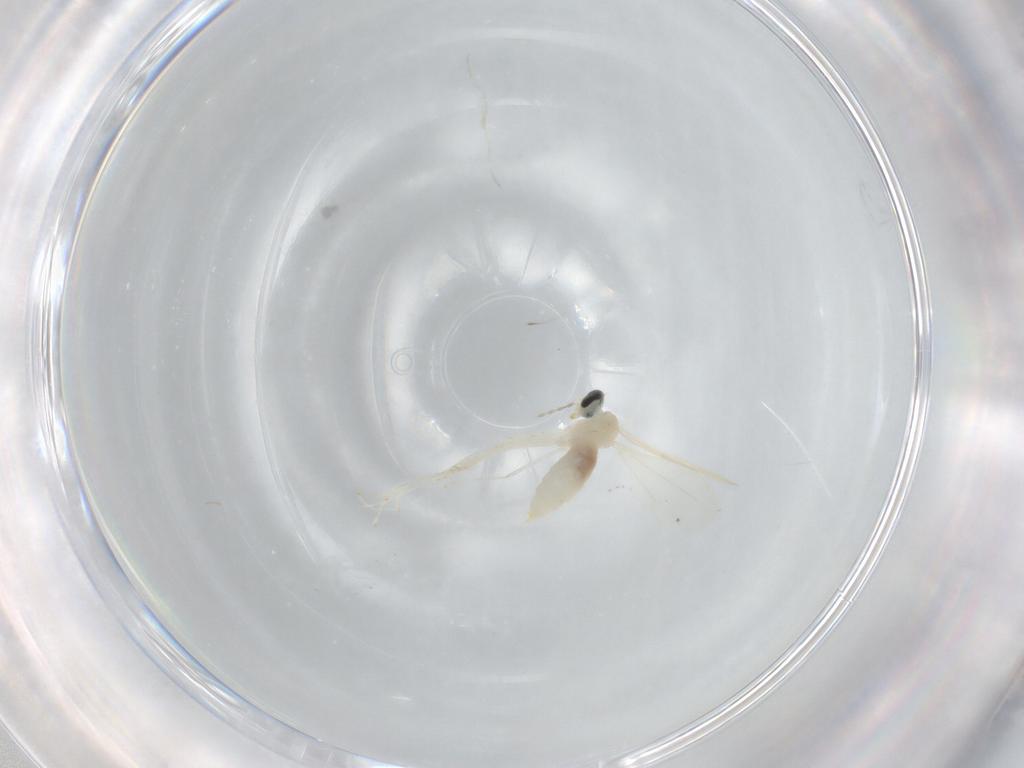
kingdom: Animalia
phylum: Arthropoda
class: Insecta
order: Diptera
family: Cecidomyiidae
